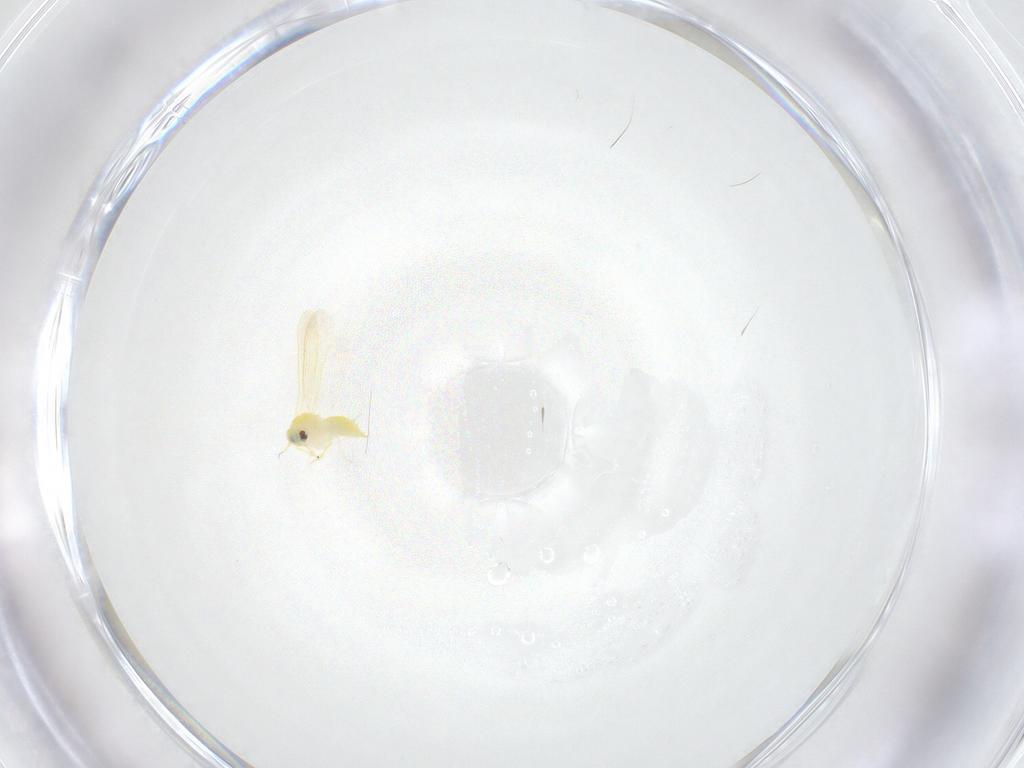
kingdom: Animalia
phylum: Arthropoda
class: Insecta
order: Hemiptera
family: Aleyrodidae
